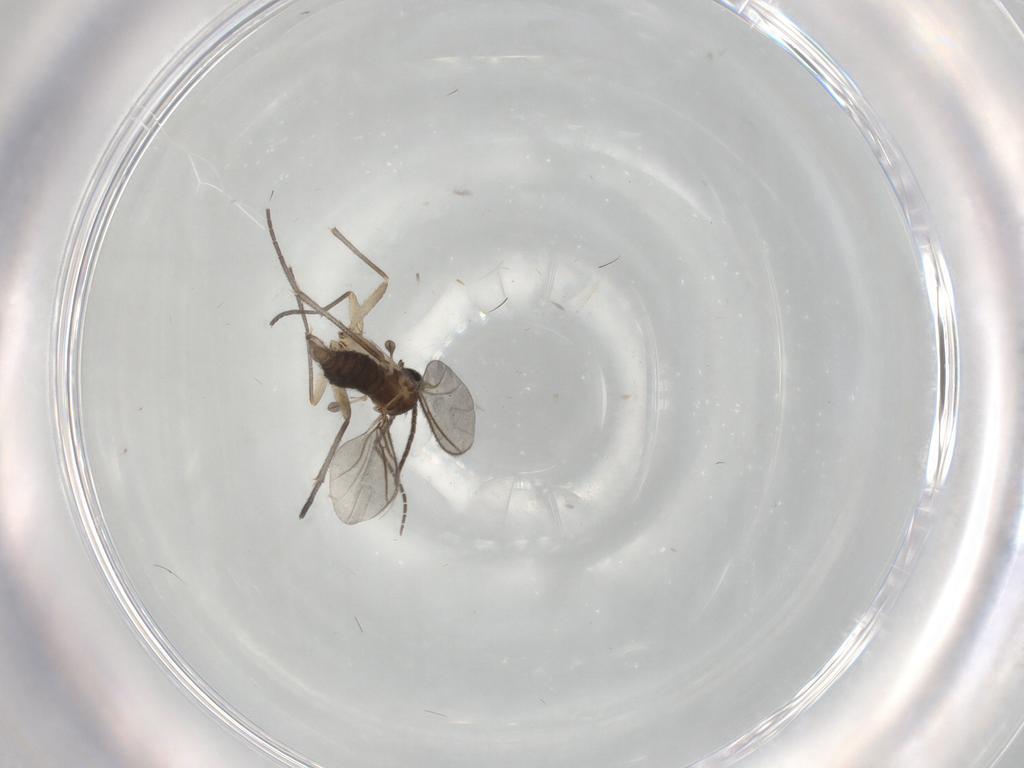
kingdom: Animalia
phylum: Arthropoda
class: Insecta
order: Diptera
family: Sciaridae
